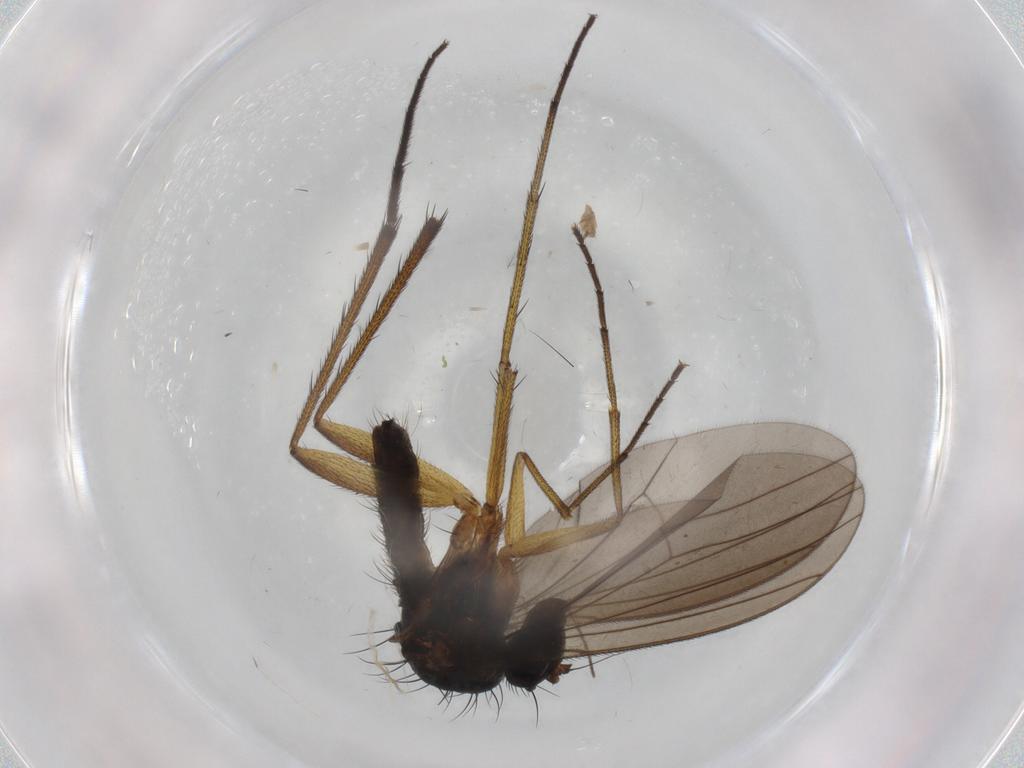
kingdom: Animalia
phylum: Arthropoda
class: Insecta
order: Diptera
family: Dolichopodidae
